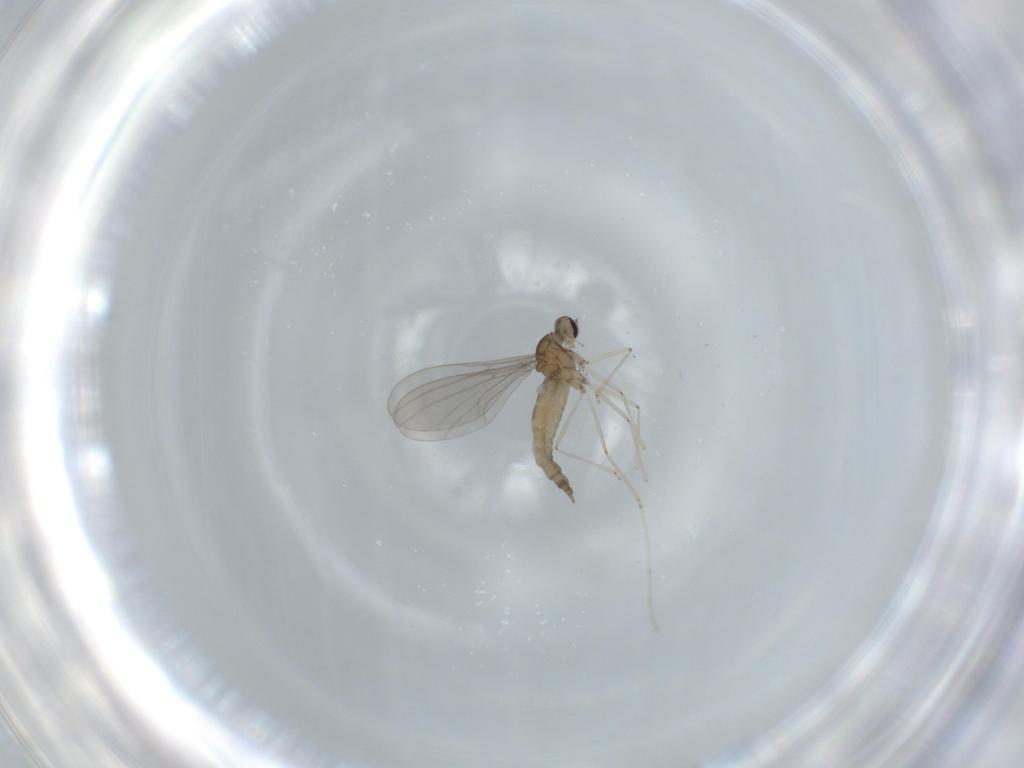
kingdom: Animalia
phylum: Arthropoda
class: Insecta
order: Diptera
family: Cecidomyiidae
